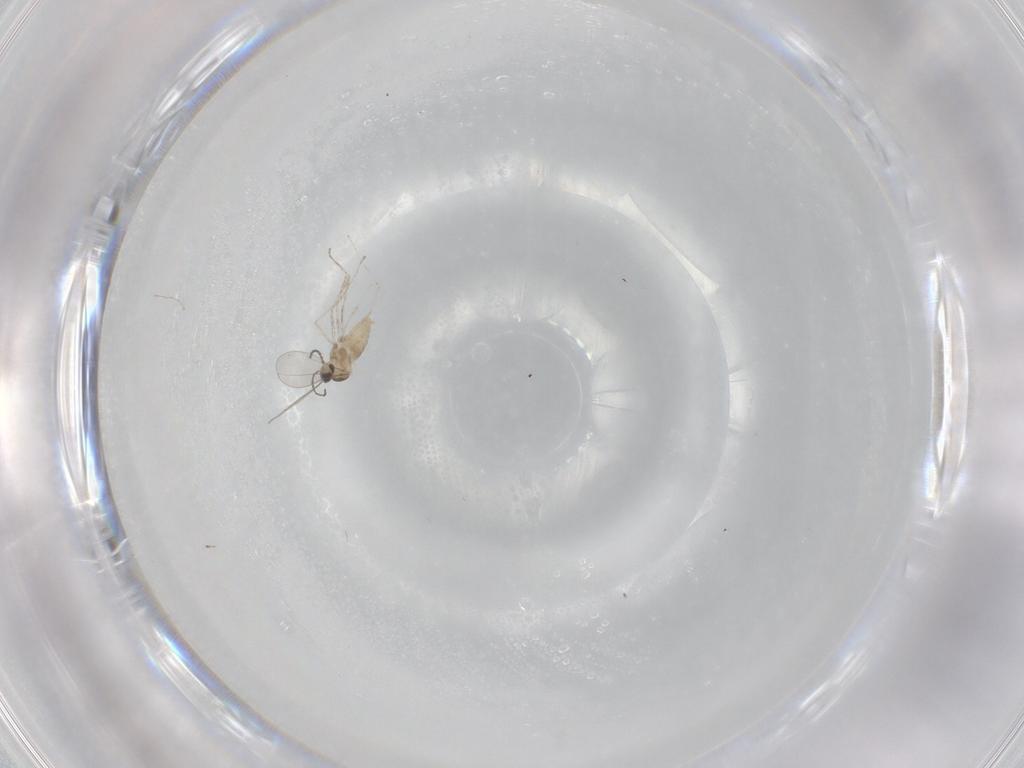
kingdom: Animalia
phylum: Arthropoda
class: Insecta
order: Diptera
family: Cecidomyiidae
